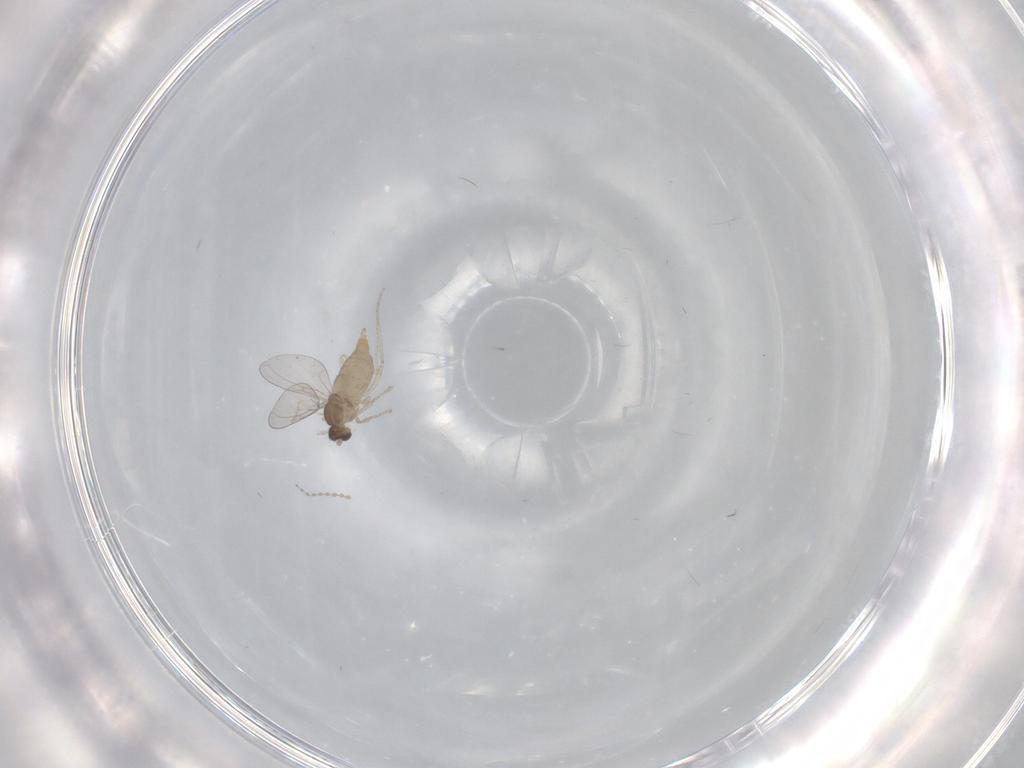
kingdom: Animalia
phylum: Arthropoda
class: Insecta
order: Diptera
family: Cecidomyiidae
